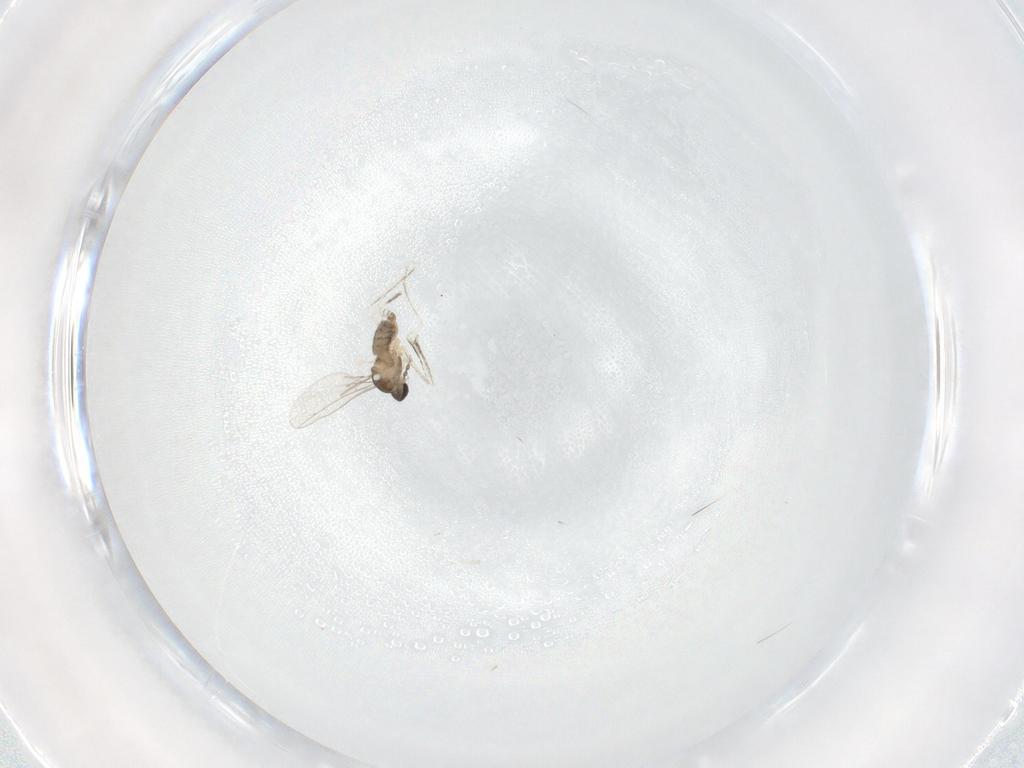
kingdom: Animalia
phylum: Arthropoda
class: Insecta
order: Diptera
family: Cecidomyiidae
